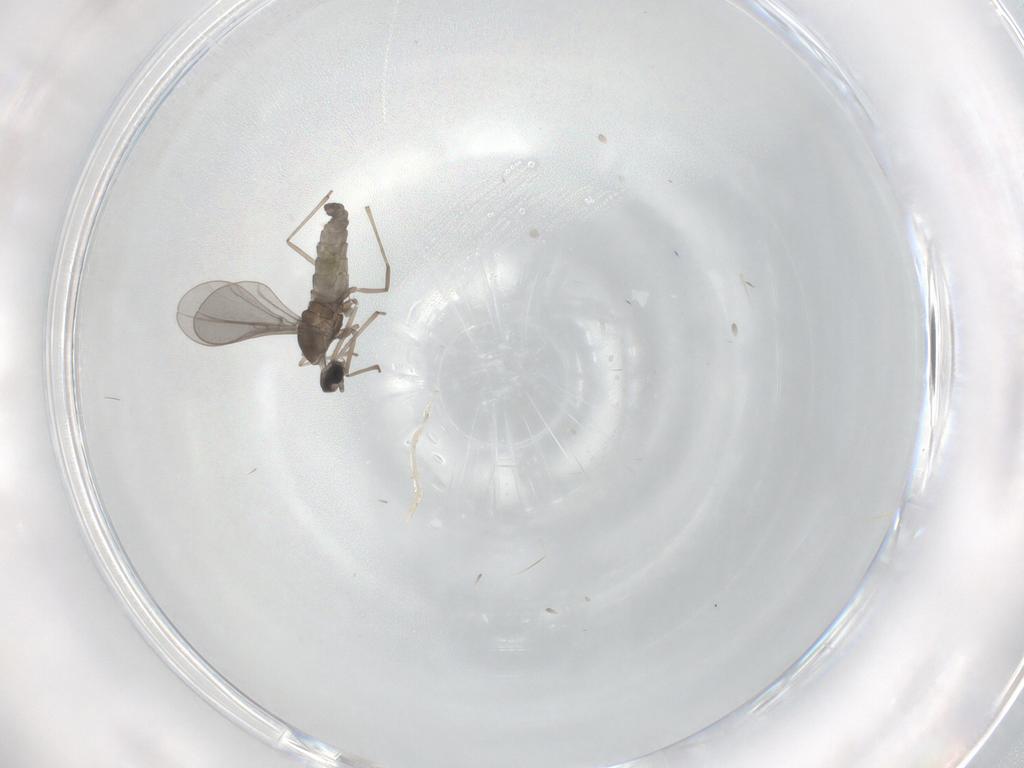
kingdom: Animalia
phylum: Arthropoda
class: Insecta
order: Diptera
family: Cecidomyiidae
